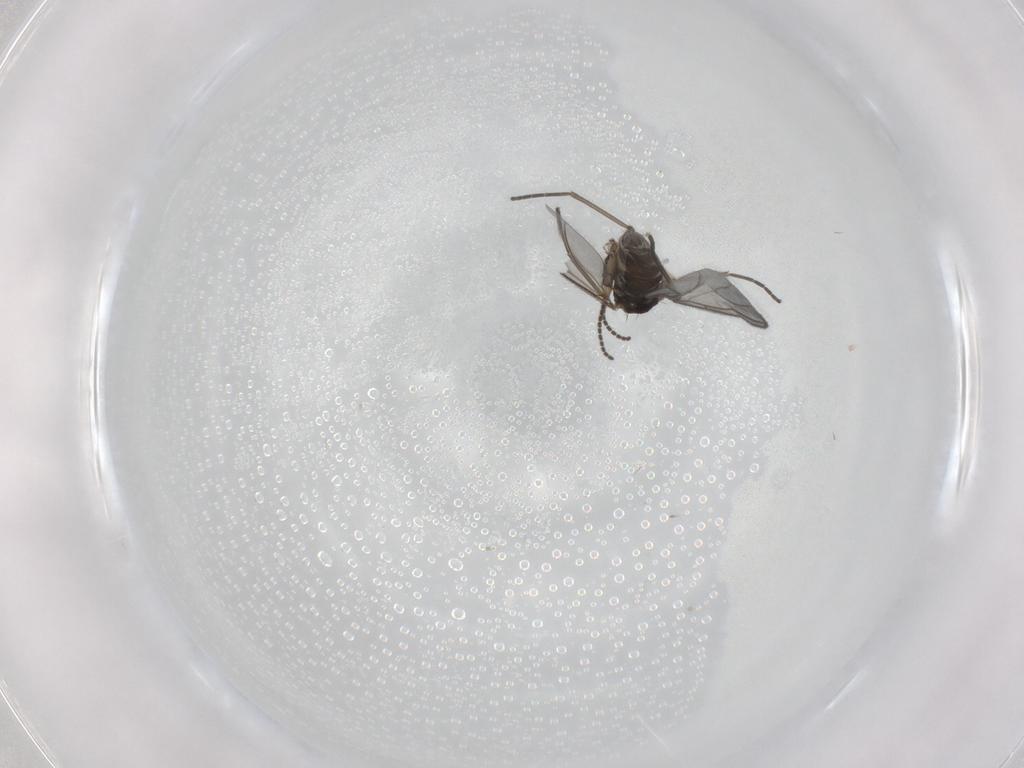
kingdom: Animalia
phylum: Arthropoda
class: Insecta
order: Diptera
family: Sciaridae
